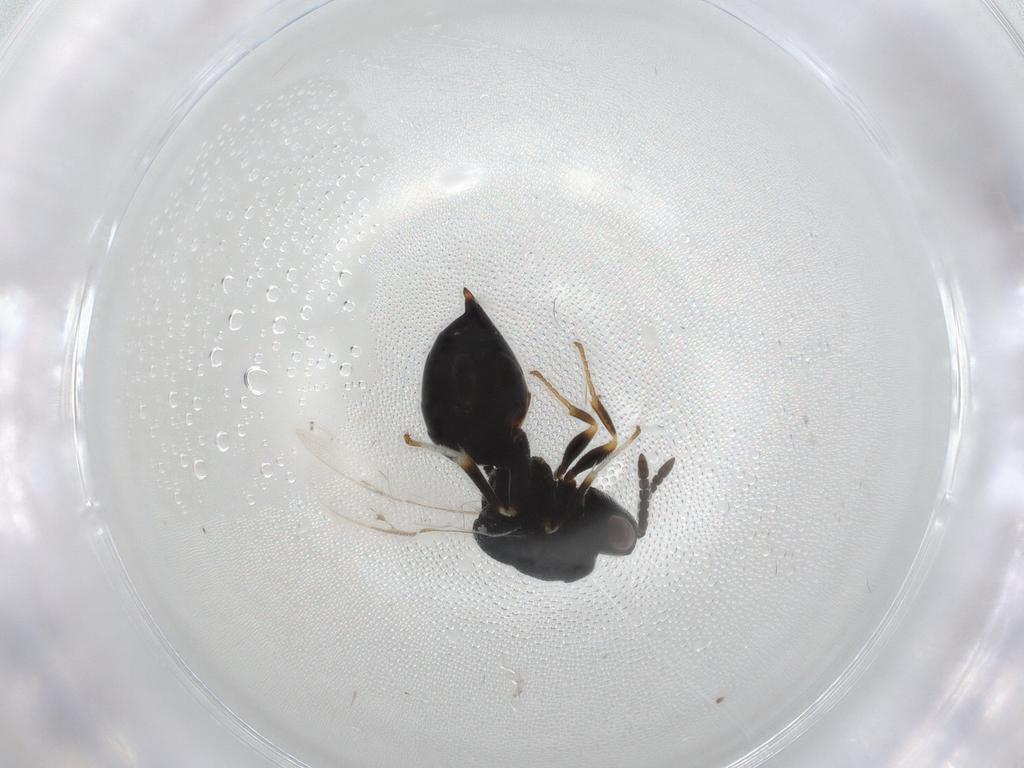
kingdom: Animalia
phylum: Arthropoda
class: Insecta
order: Hymenoptera
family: Eurytomidae
